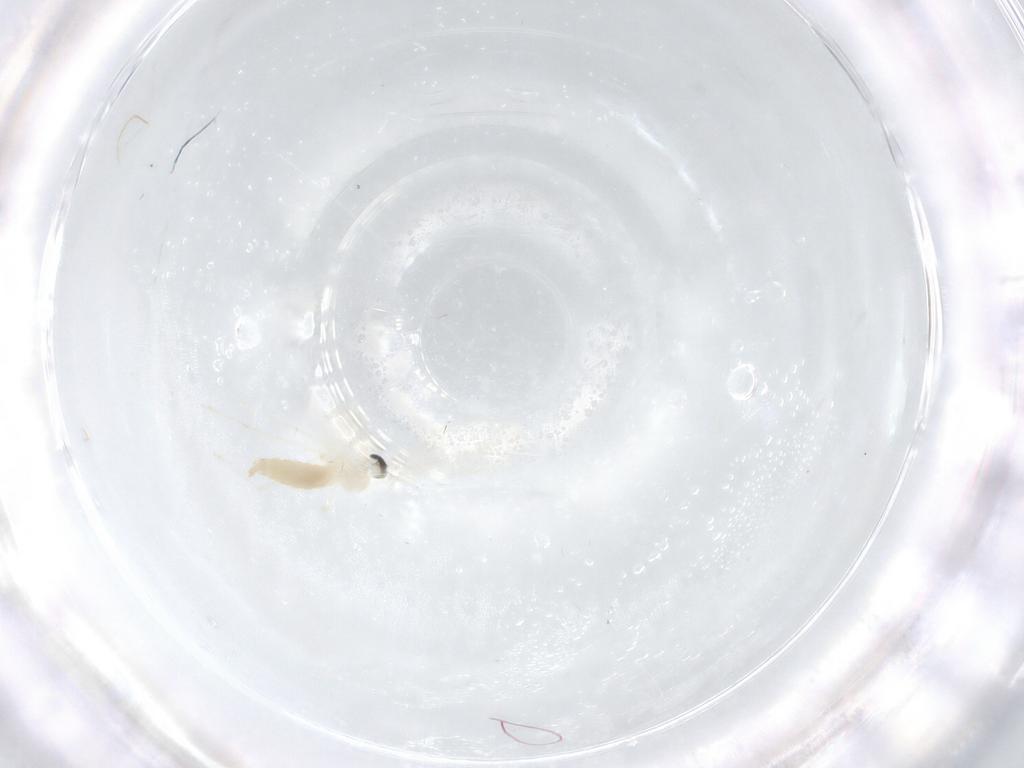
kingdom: Animalia
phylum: Arthropoda
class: Insecta
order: Diptera
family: Cecidomyiidae
